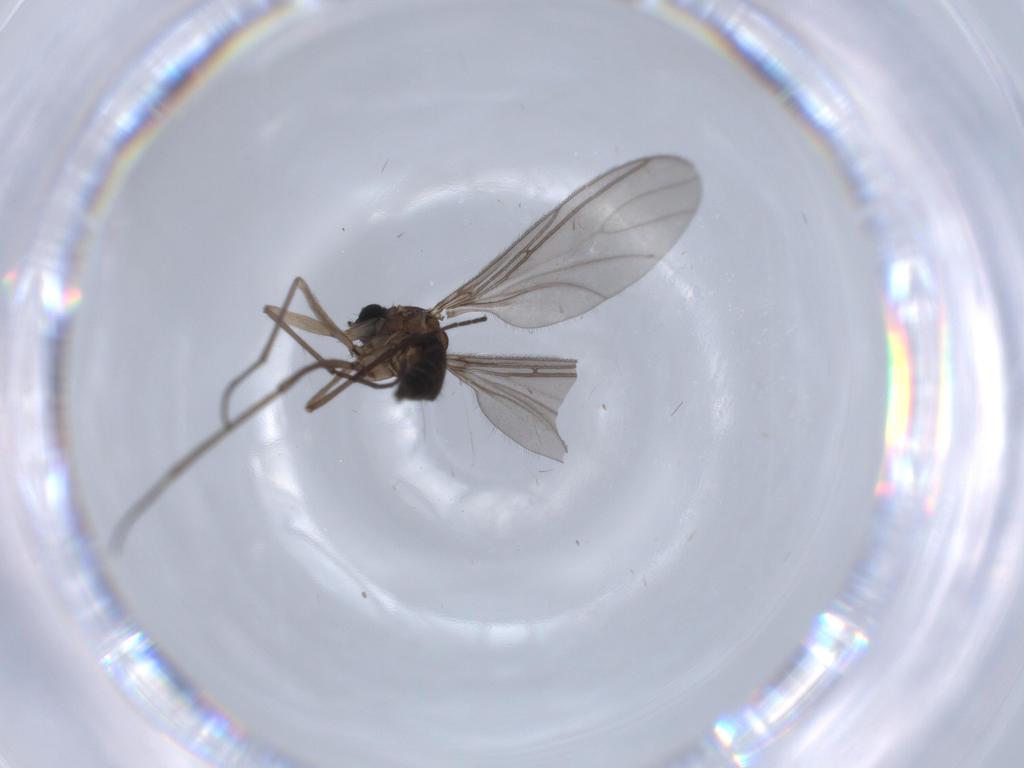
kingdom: Animalia
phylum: Arthropoda
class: Insecta
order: Diptera
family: Sciaridae
